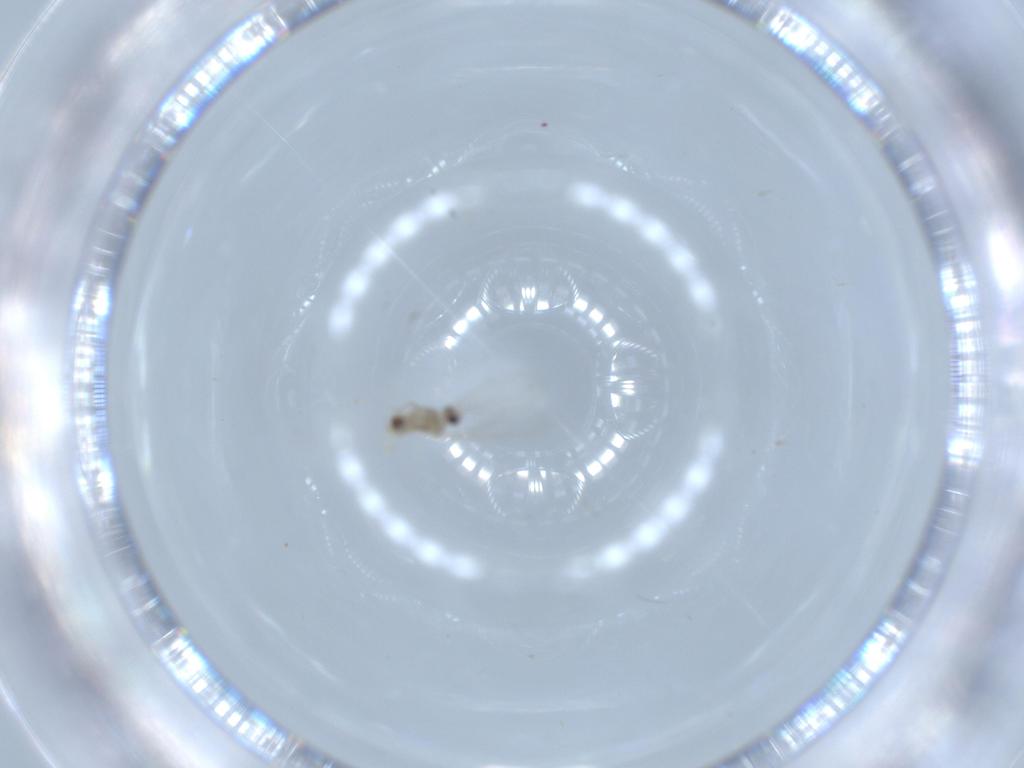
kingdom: Animalia
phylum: Arthropoda
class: Insecta
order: Diptera
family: Cecidomyiidae
